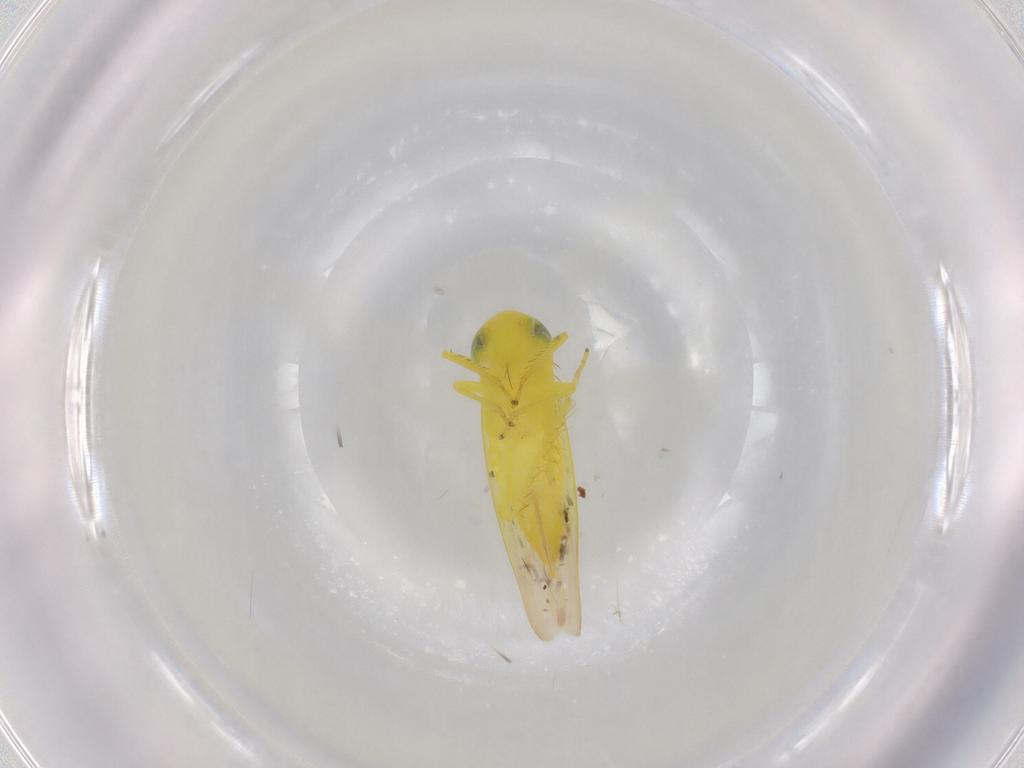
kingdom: Animalia
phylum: Arthropoda
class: Insecta
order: Hemiptera
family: Cicadellidae
